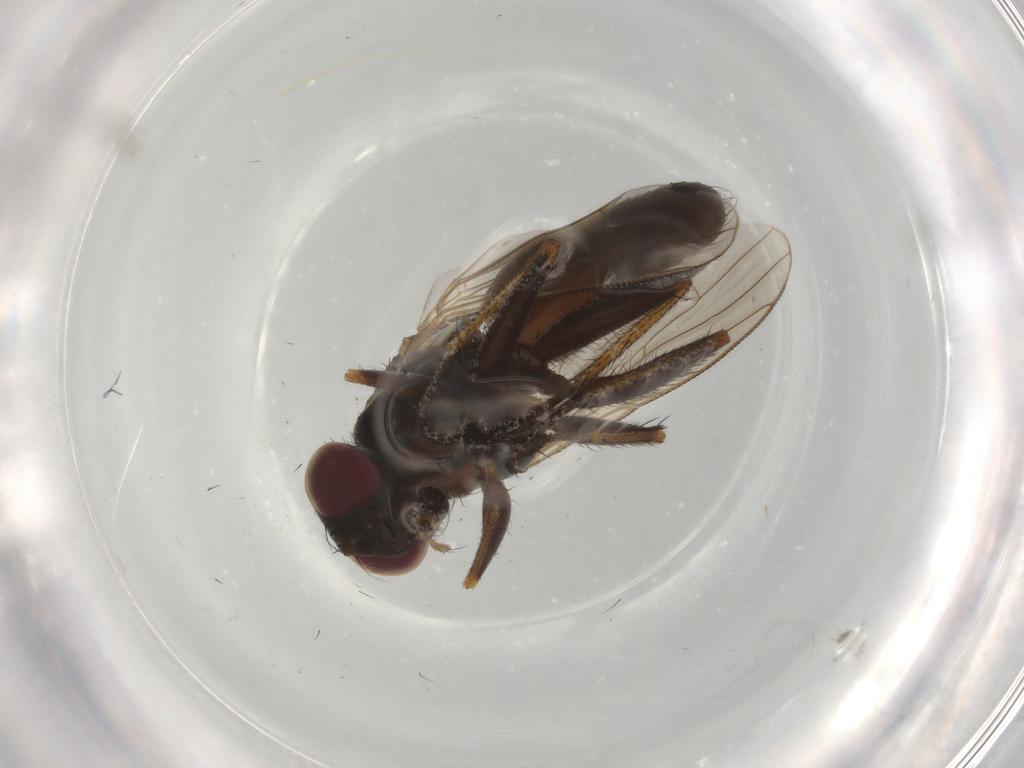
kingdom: Animalia
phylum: Arthropoda
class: Insecta
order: Diptera
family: Muscidae
